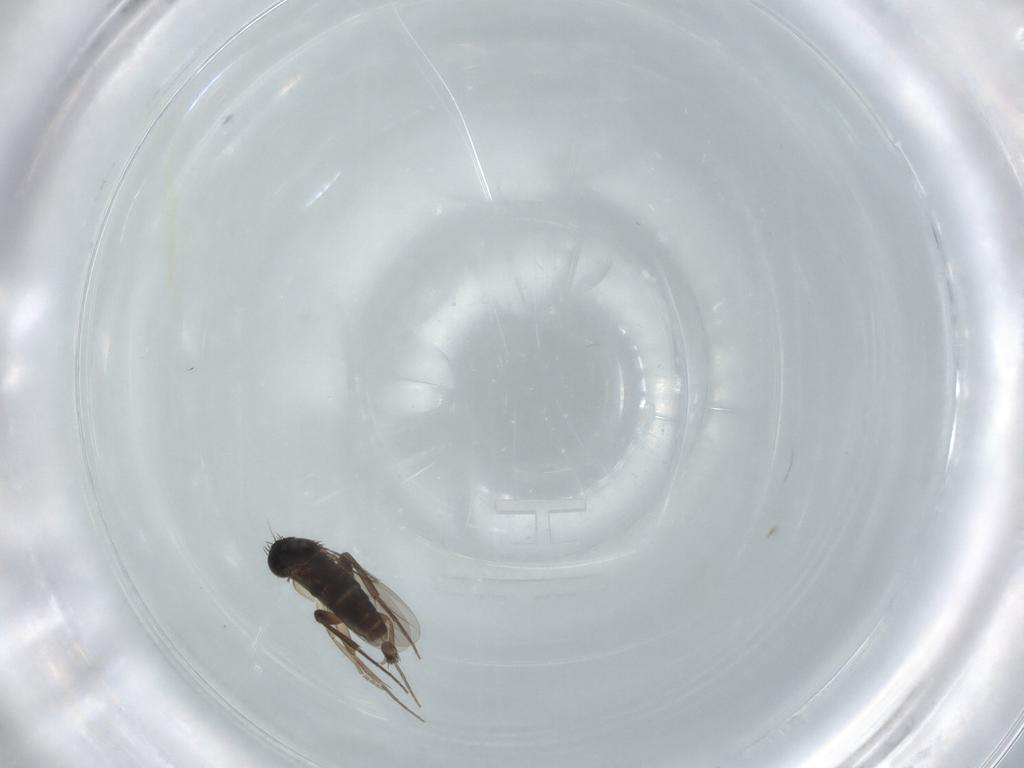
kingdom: Animalia
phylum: Arthropoda
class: Insecta
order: Diptera
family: Phoridae
